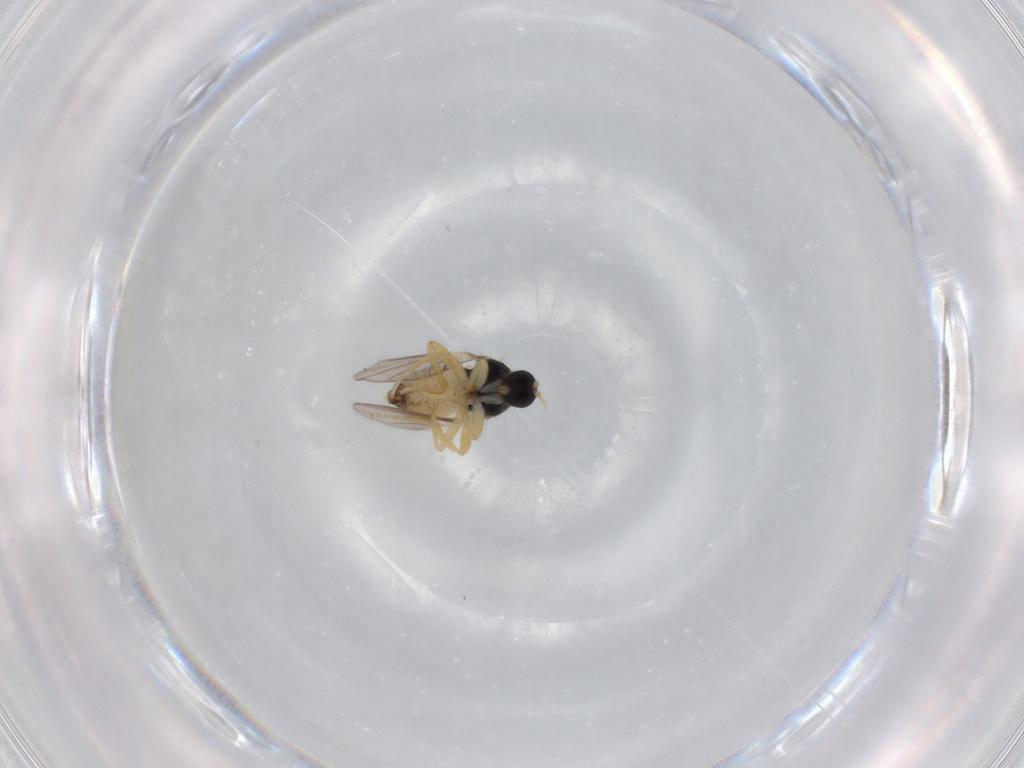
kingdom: Animalia
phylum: Arthropoda
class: Insecta
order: Diptera
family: Hybotidae
